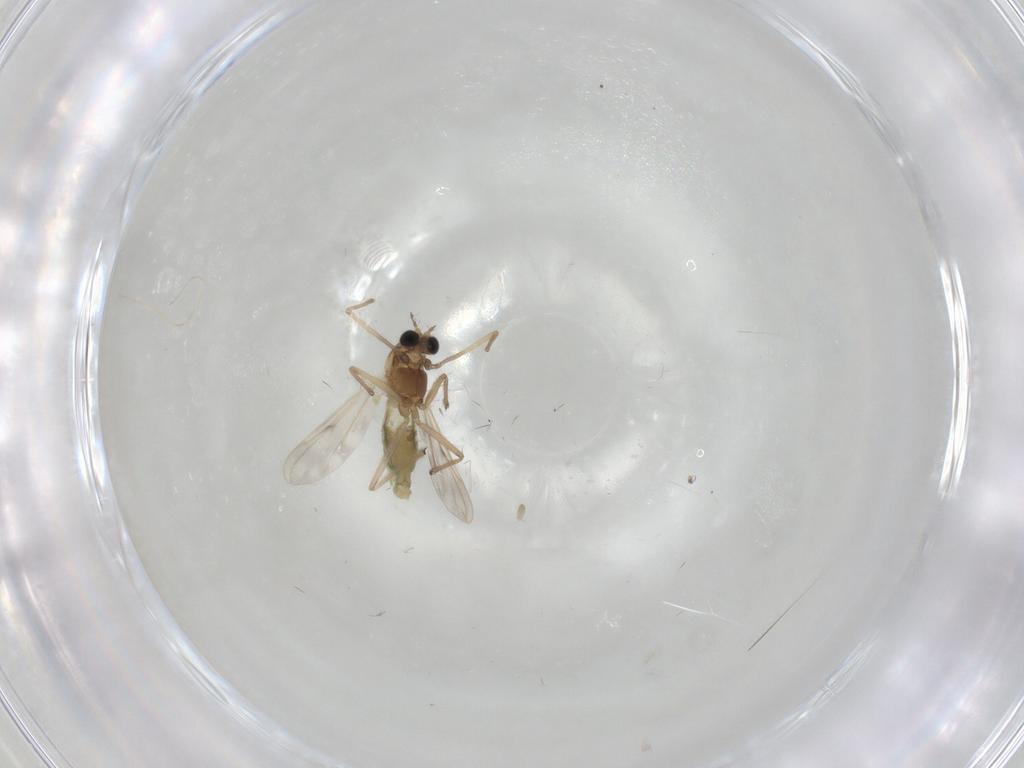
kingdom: Animalia
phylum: Arthropoda
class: Insecta
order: Diptera
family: Chironomidae
